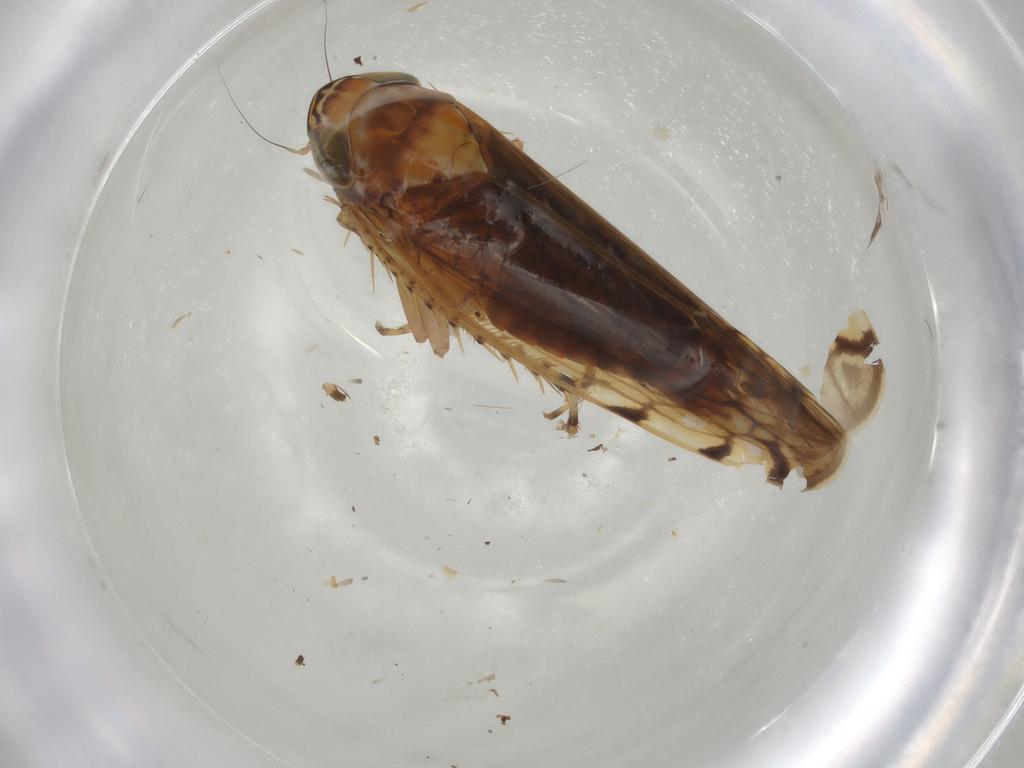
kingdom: Animalia
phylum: Arthropoda
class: Insecta
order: Hemiptera
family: Cicadellidae
